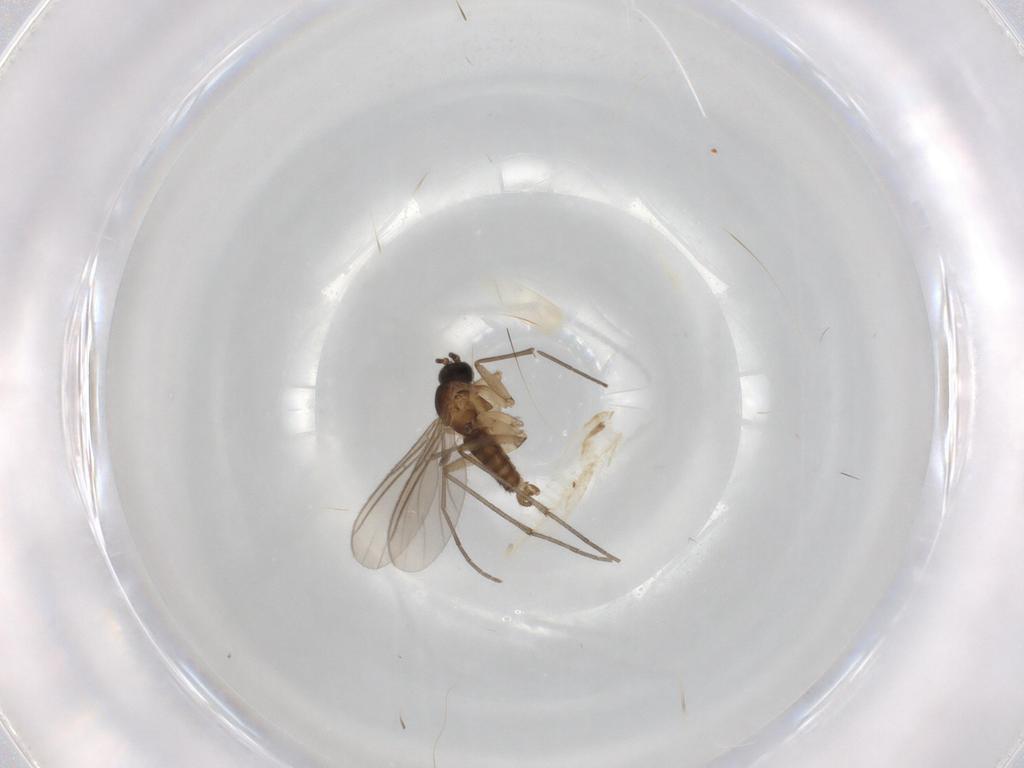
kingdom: Animalia
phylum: Arthropoda
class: Insecta
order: Diptera
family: Sciaridae
